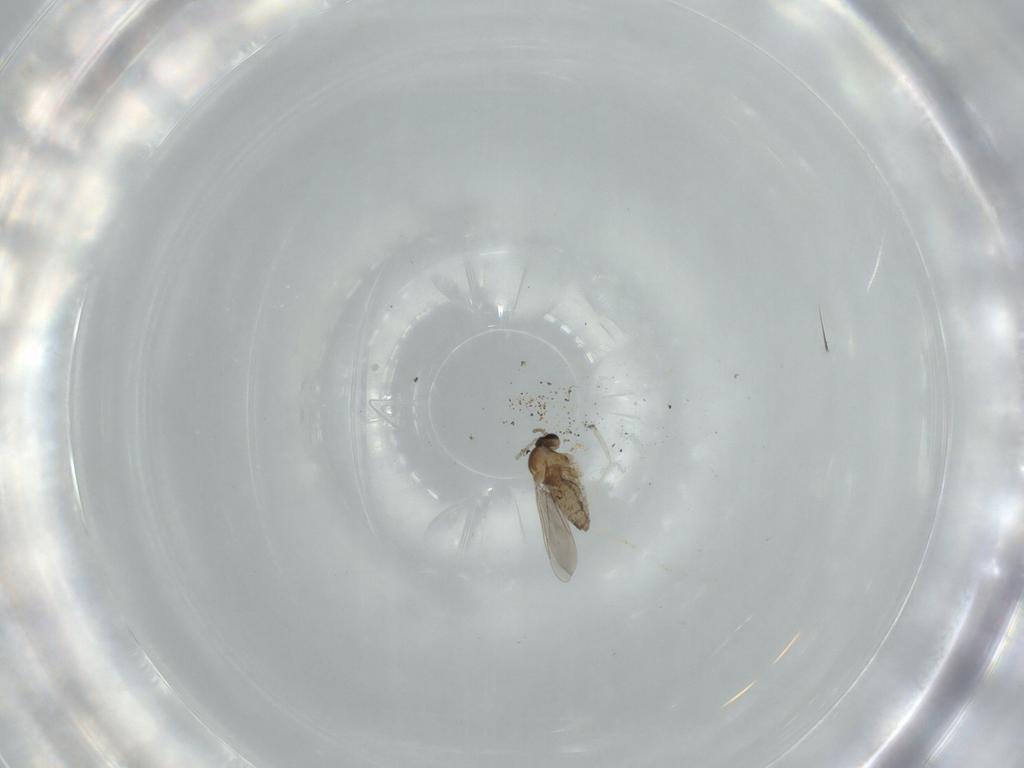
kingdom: Animalia
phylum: Arthropoda
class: Insecta
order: Diptera
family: Cecidomyiidae
